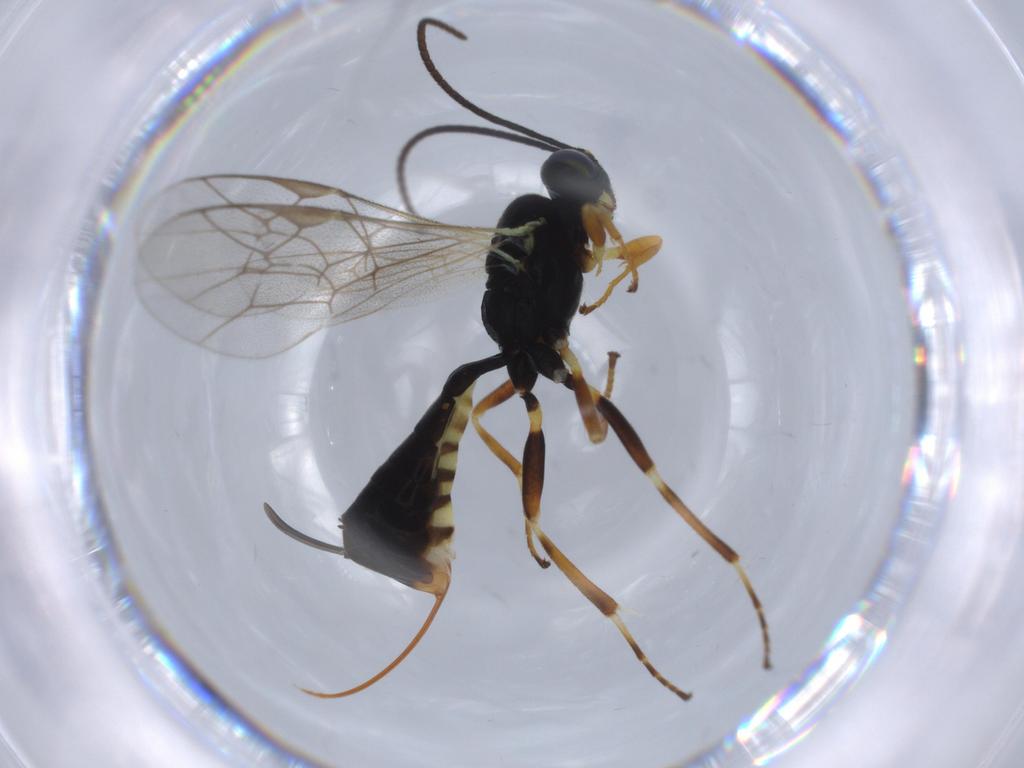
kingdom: Animalia
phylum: Arthropoda
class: Insecta
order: Hymenoptera
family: Ichneumonidae
